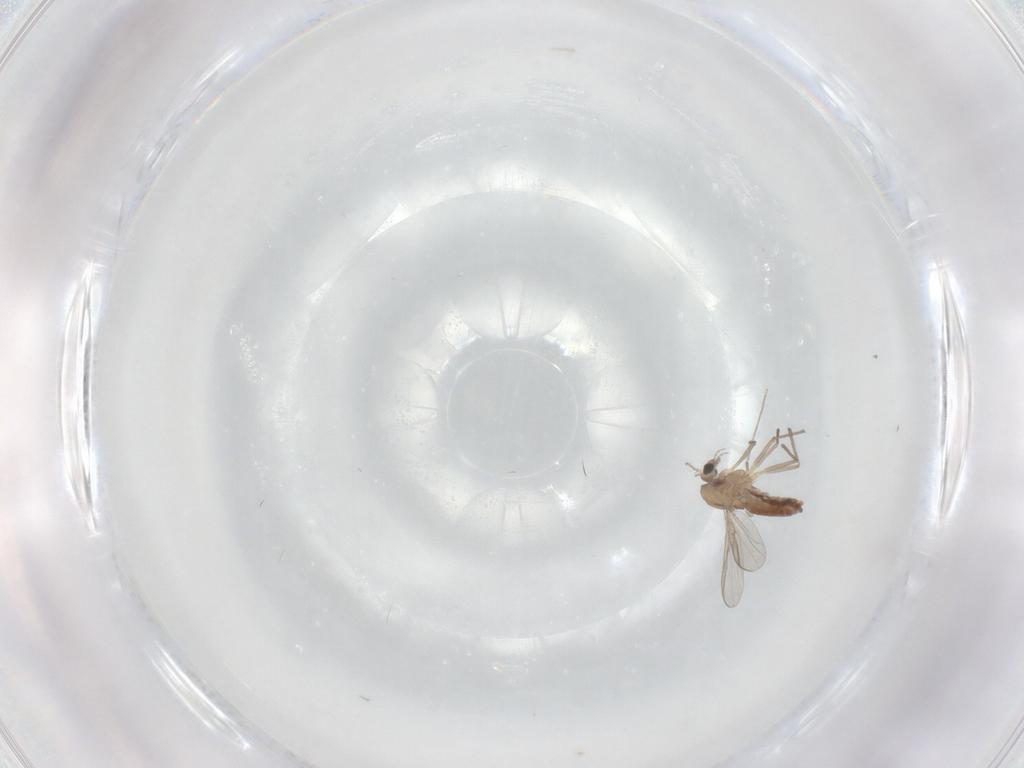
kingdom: Animalia
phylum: Arthropoda
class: Insecta
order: Diptera
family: Chironomidae
